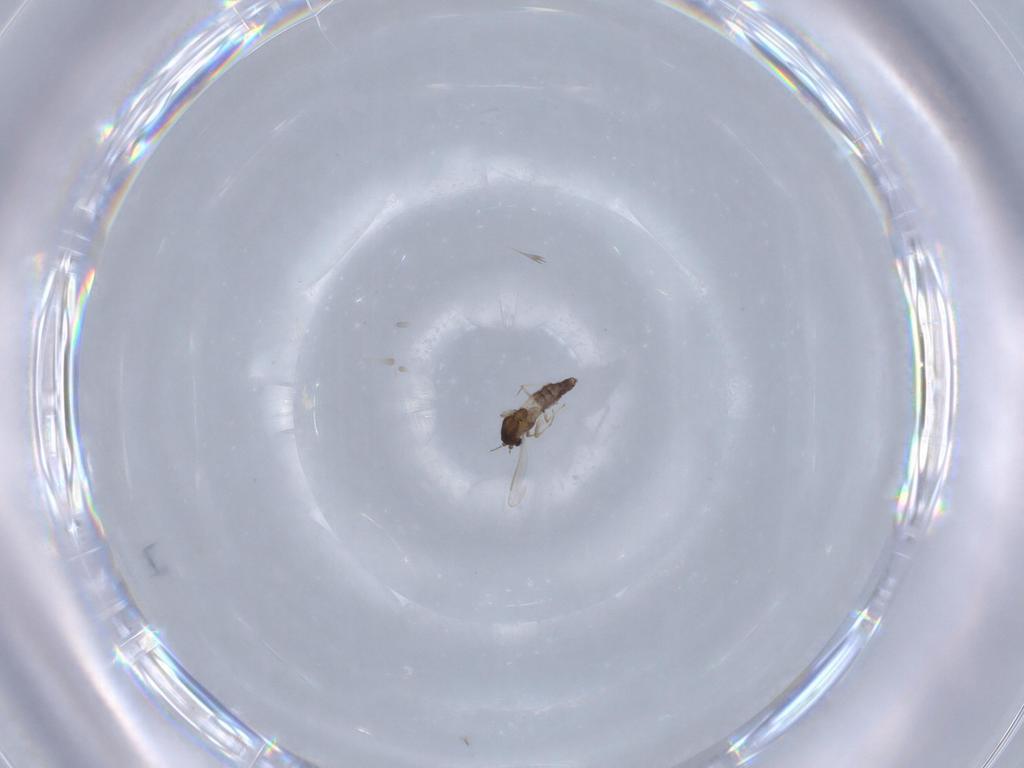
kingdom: Animalia
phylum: Arthropoda
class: Insecta
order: Diptera
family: Chironomidae
